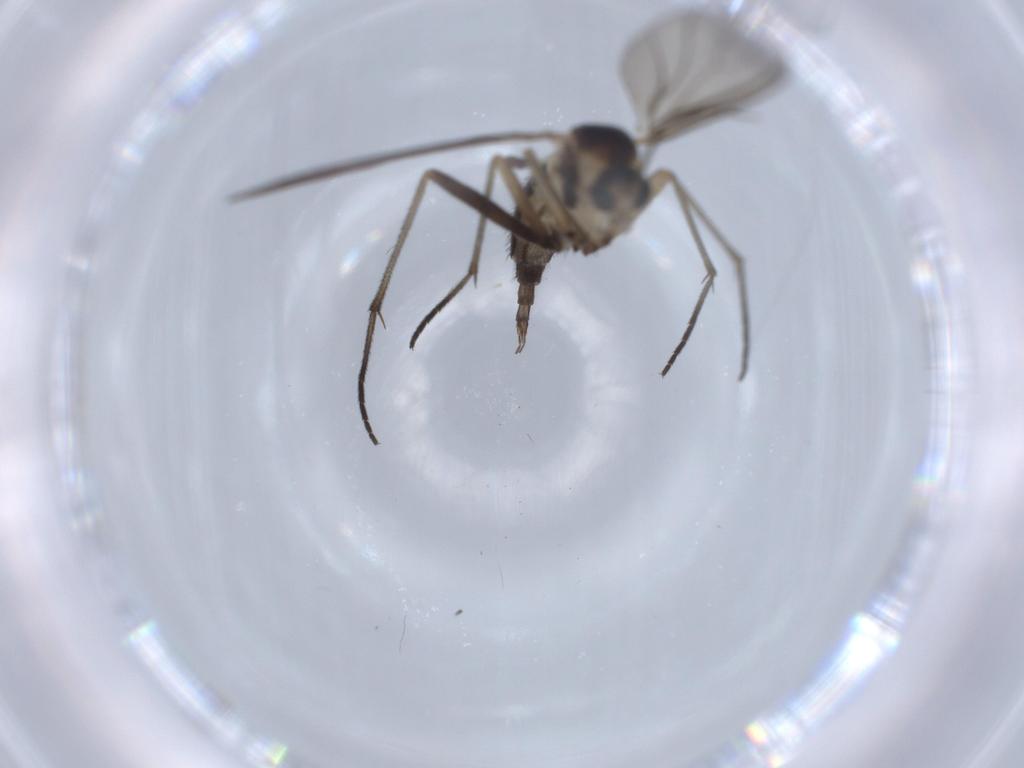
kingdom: Animalia
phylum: Arthropoda
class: Insecta
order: Diptera
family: Sciaridae
